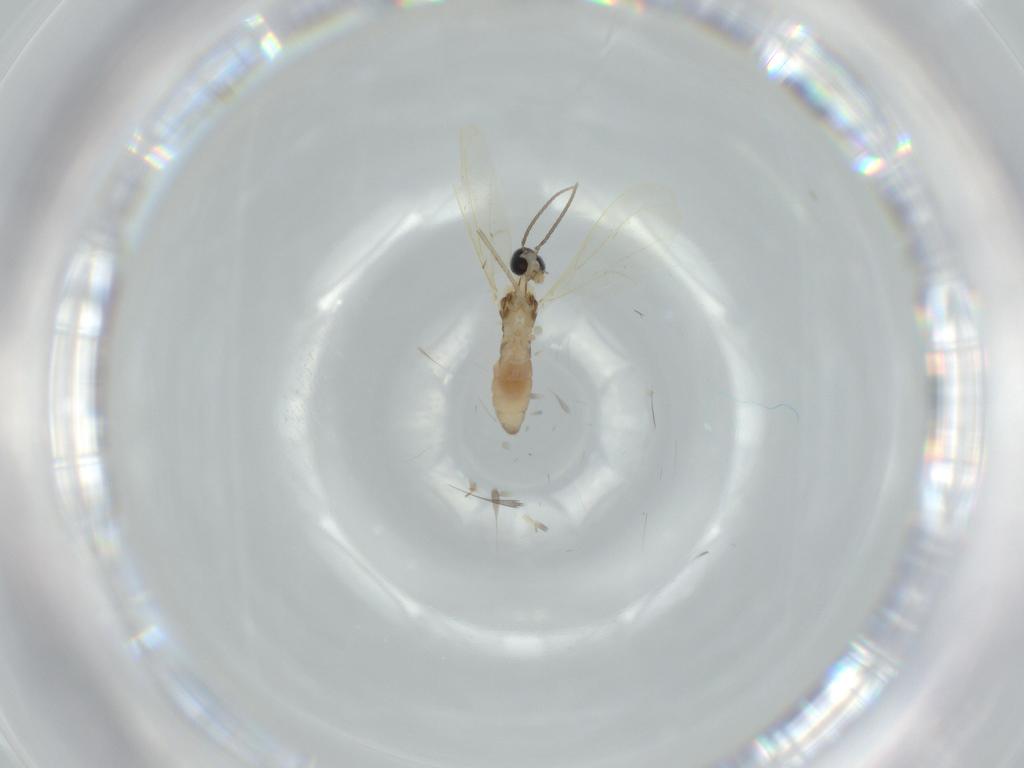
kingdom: Animalia
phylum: Arthropoda
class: Insecta
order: Diptera
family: Cecidomyiidae
